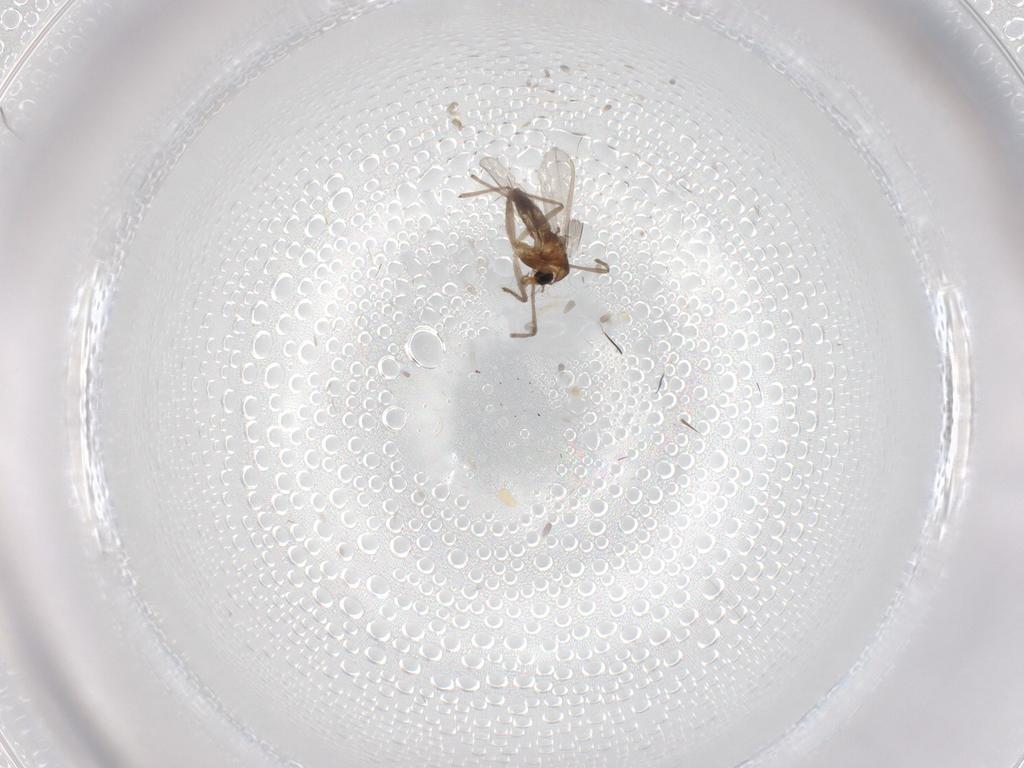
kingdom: Animalia
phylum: Arthropoda
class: Insecta
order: Diptera
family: Chironomidae
